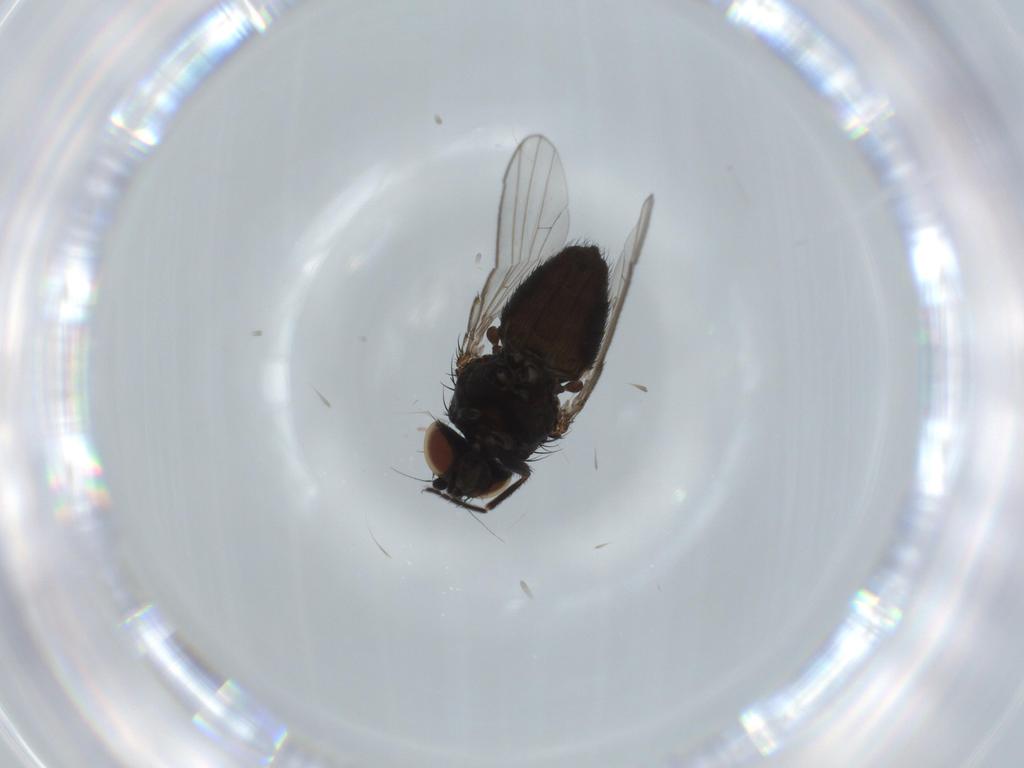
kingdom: Animalia
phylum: Arthropoda
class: Insecta
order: Diptera
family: Milichiidae
